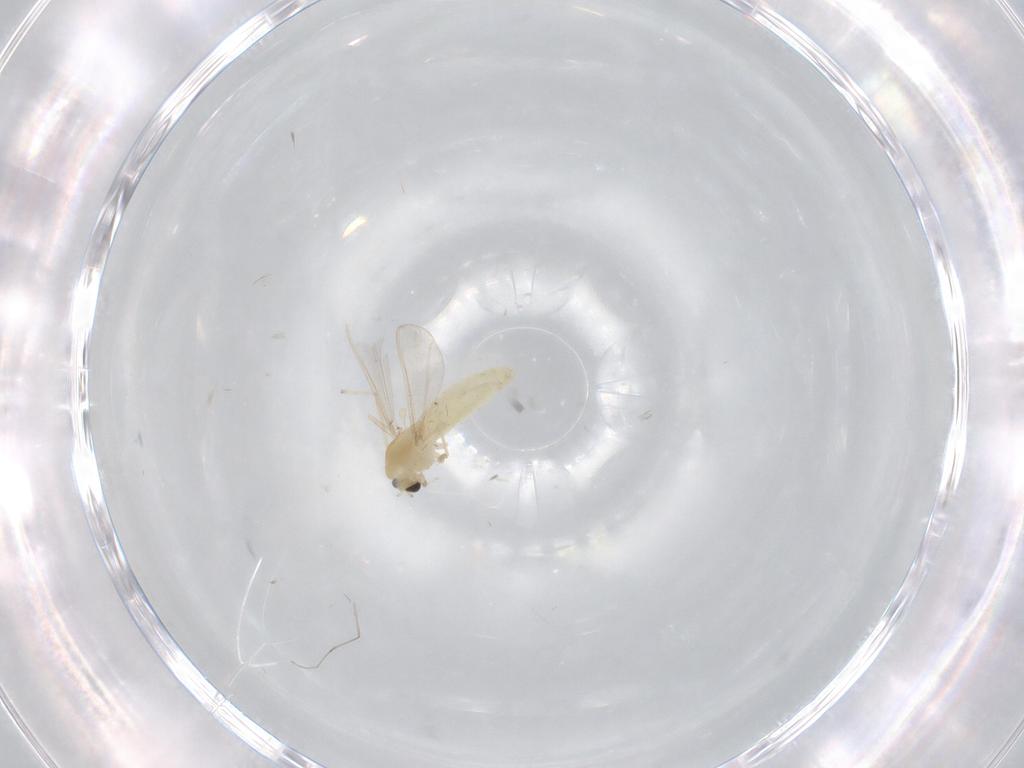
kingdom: Animalia
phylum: Arthropoda
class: Insecta
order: Diptera
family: Chironomidae
